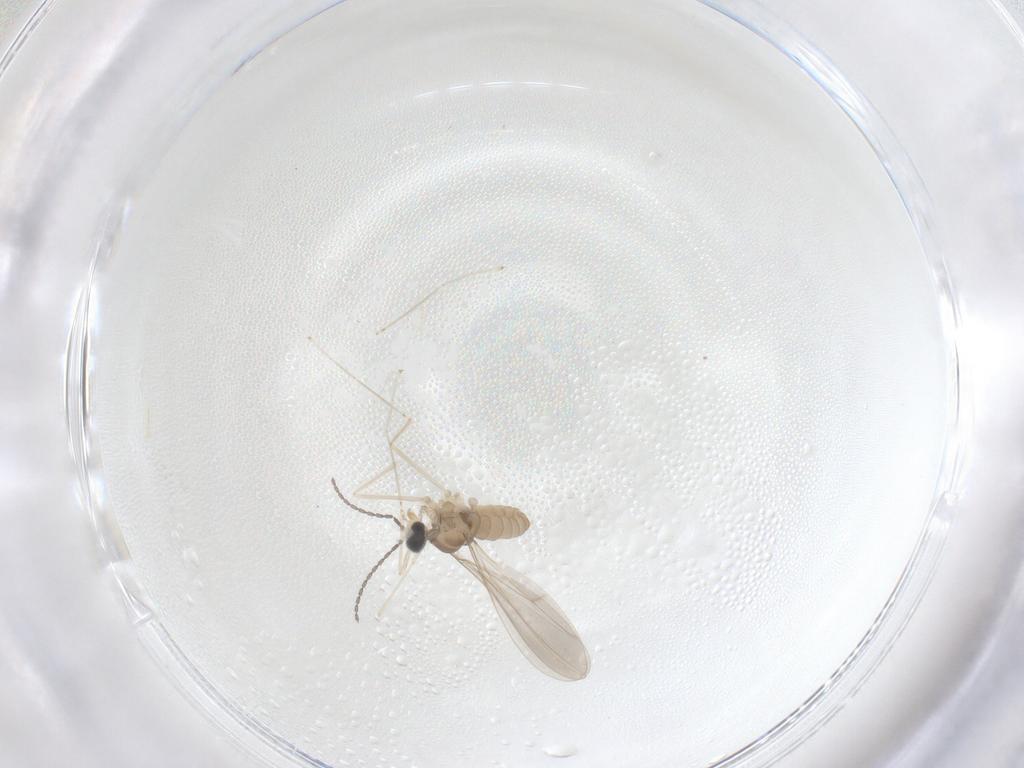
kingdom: Animalia
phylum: Arthropoda
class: Insecta
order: Diptera
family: Cecidomyiidae
